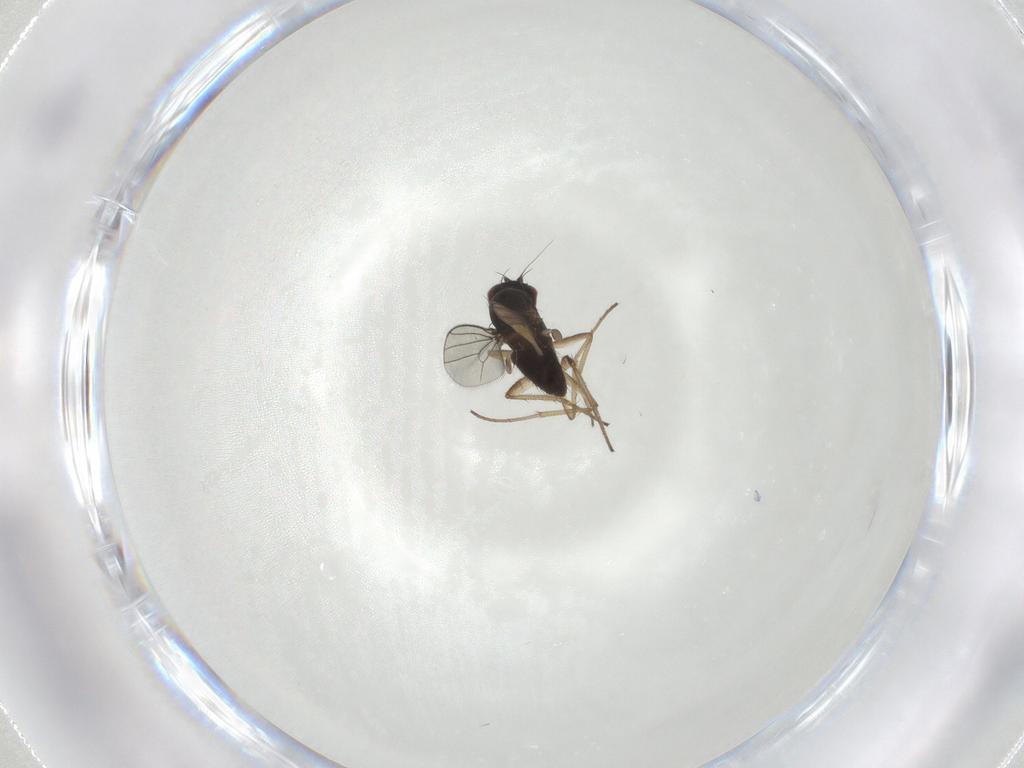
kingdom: Animalia
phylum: Arthropoda
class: Insecta
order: Diptera
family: Dolichopodidae
